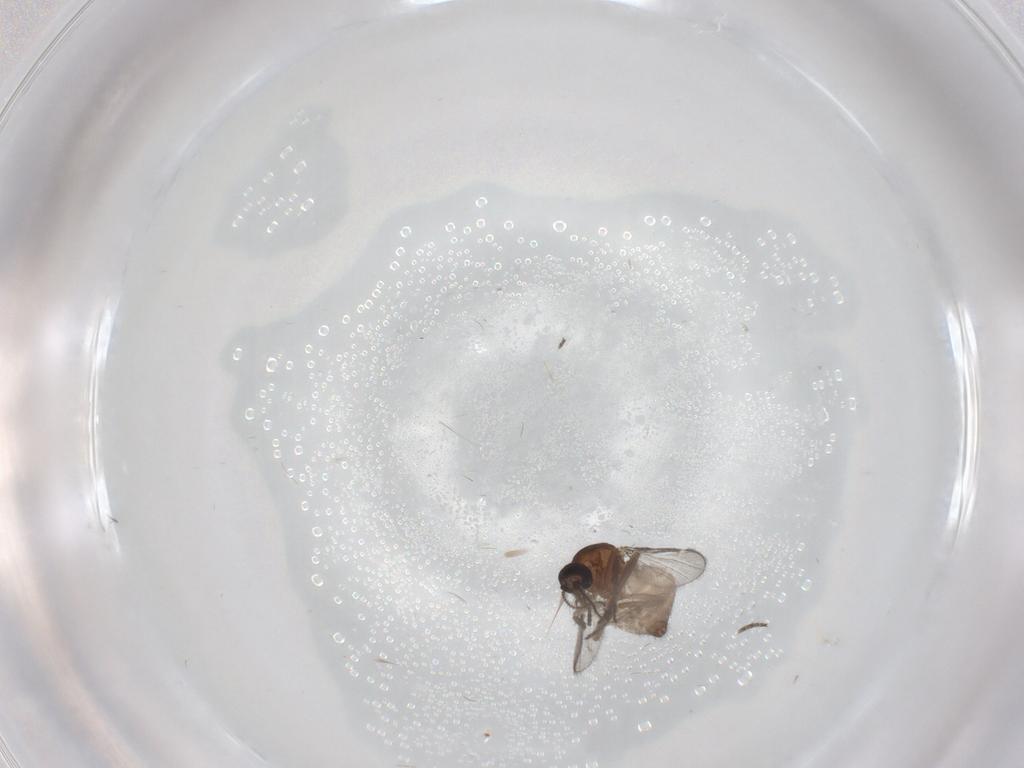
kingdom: Animalia
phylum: Arthropoda
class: Insecta
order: Diptera
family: Ceratopogonidae
